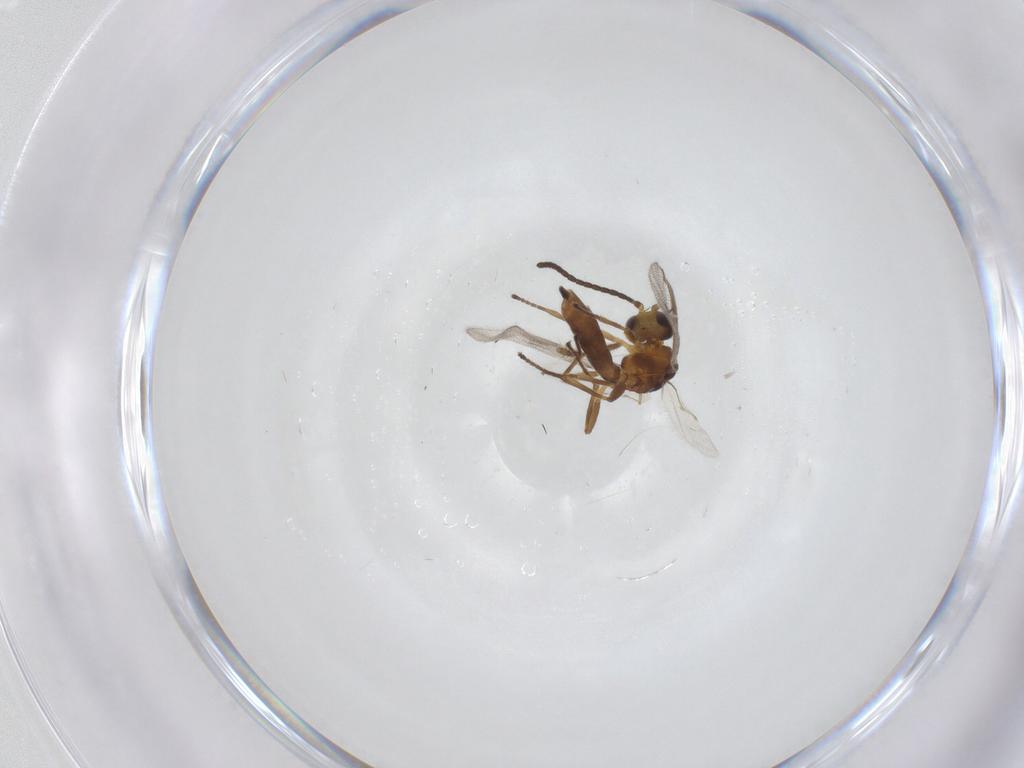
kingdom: Animalia
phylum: Arthropoda
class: Insecta
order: Hymenoptera
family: Braconidae
